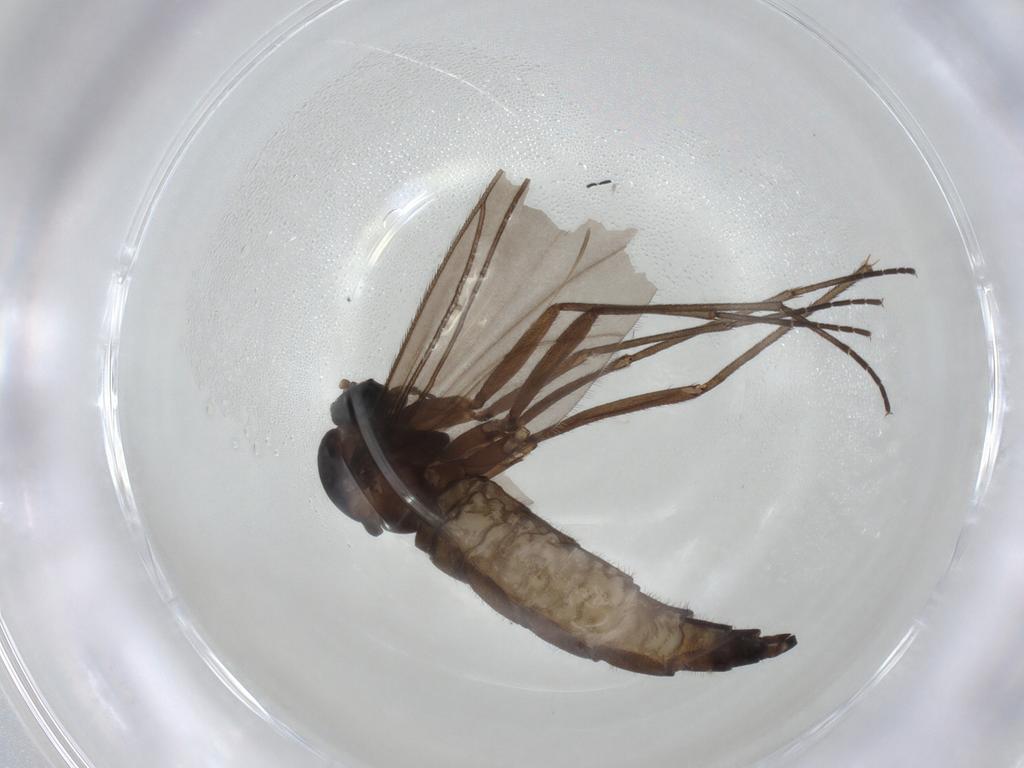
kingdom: Animalia
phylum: Arthropoda
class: Insecta
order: Diptera
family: Sciaridae
